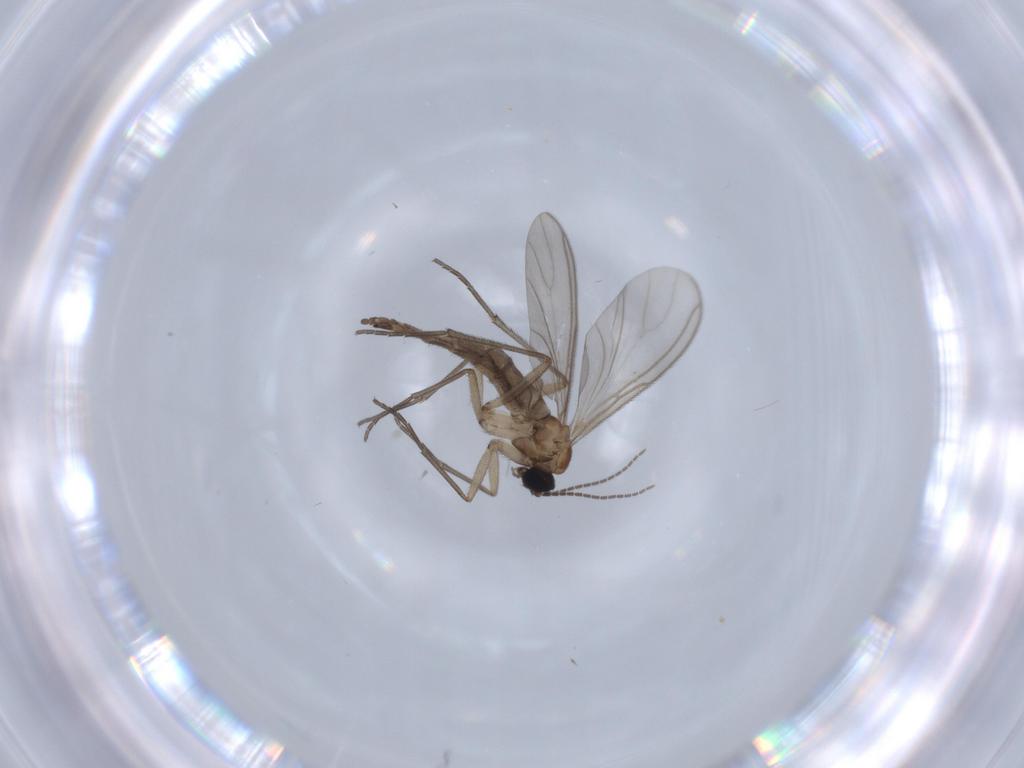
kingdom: Animalia
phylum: Arthropoda
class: Insecta
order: Diptera
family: Sciaridae
